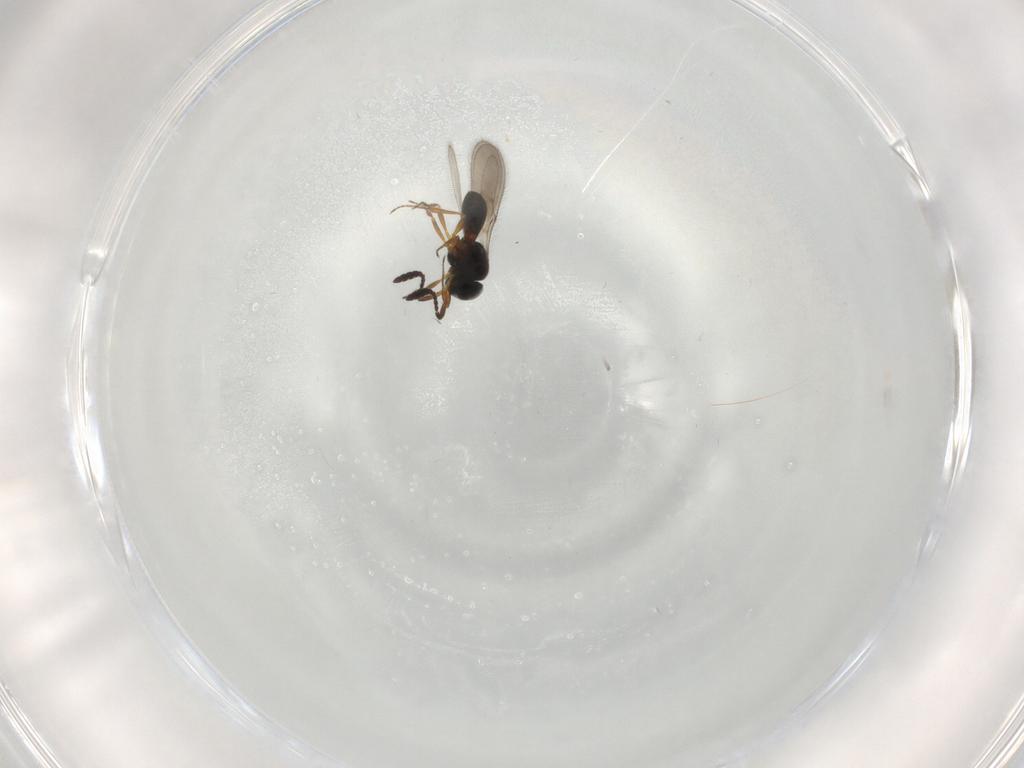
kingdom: Animalia
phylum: Arthropoda
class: Insecta
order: Hymenoptera
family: Scelionidae
